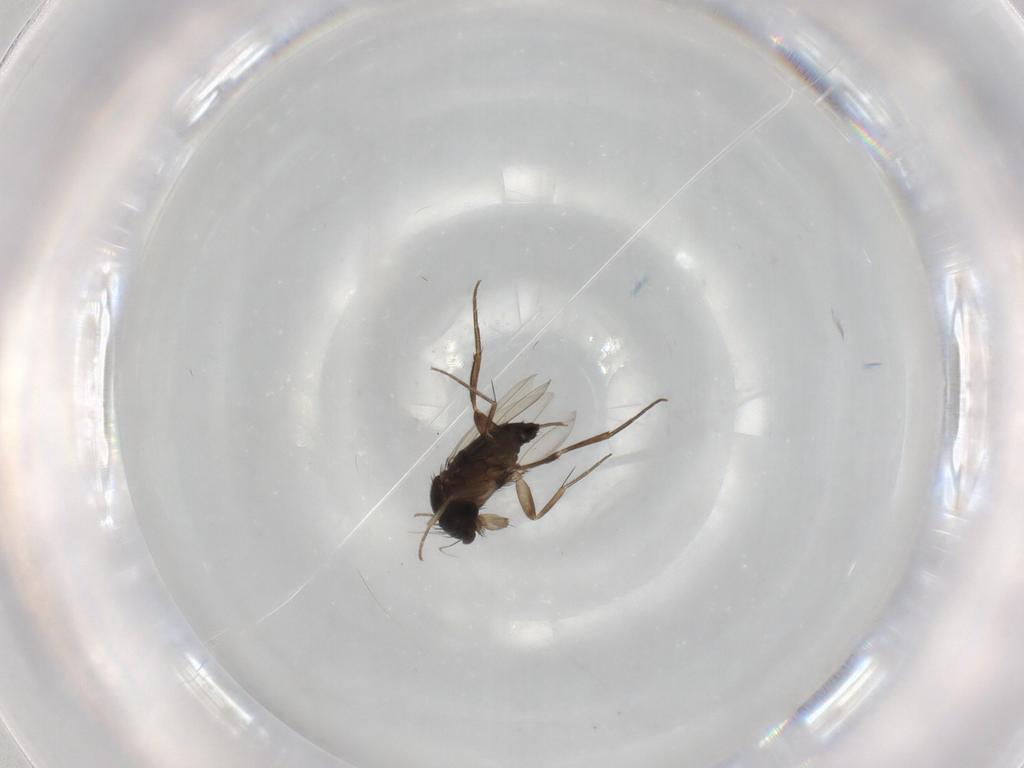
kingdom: Animalia
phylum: Arthropoda
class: Insecta
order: Diptera
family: Phoridae
